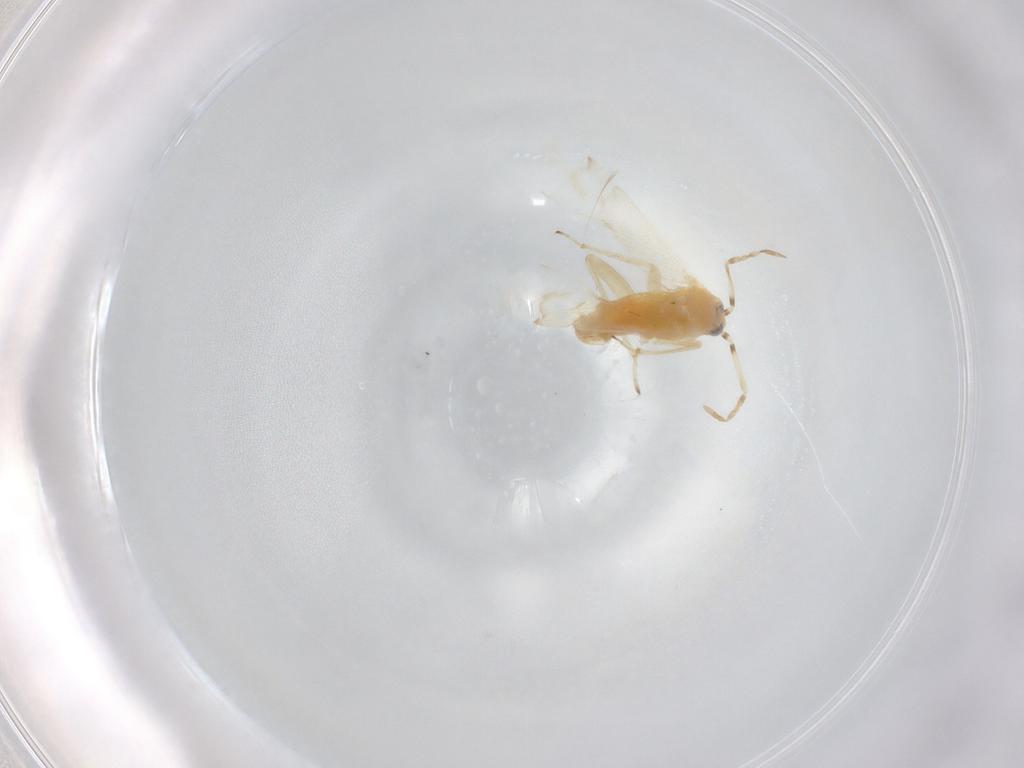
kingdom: Animalia
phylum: Arthropoda
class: Insecta
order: Hemiptera
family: Miridae
